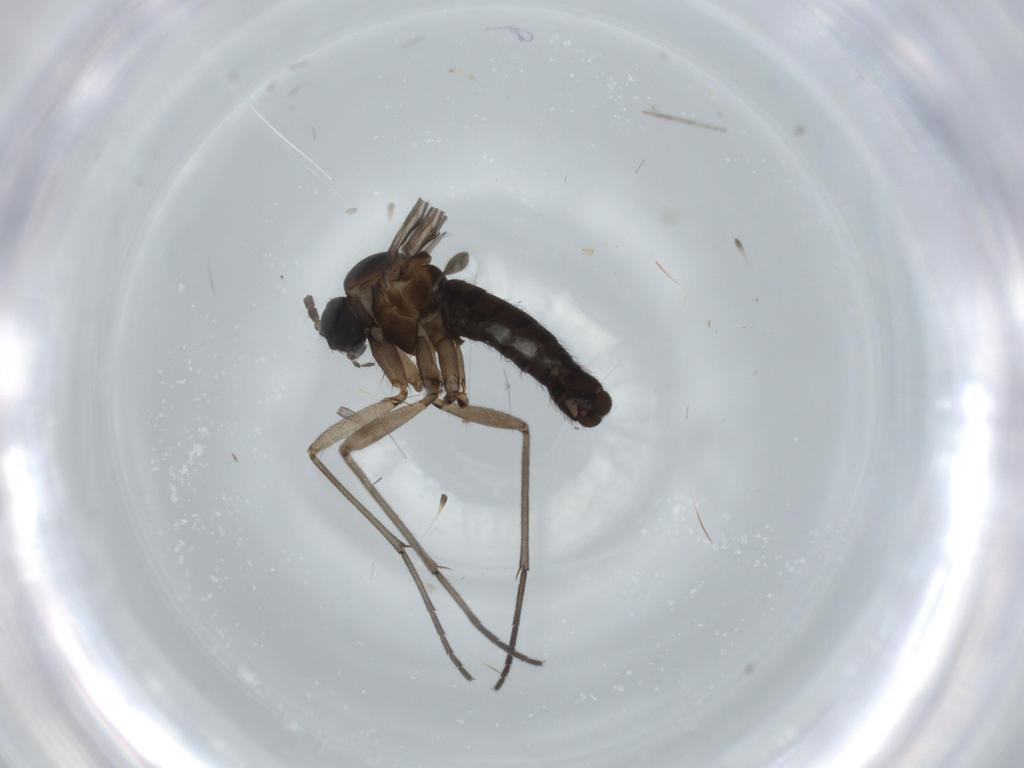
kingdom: Animalia
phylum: Arthropoda
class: Insecta
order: Diptera
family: Sciaridae
